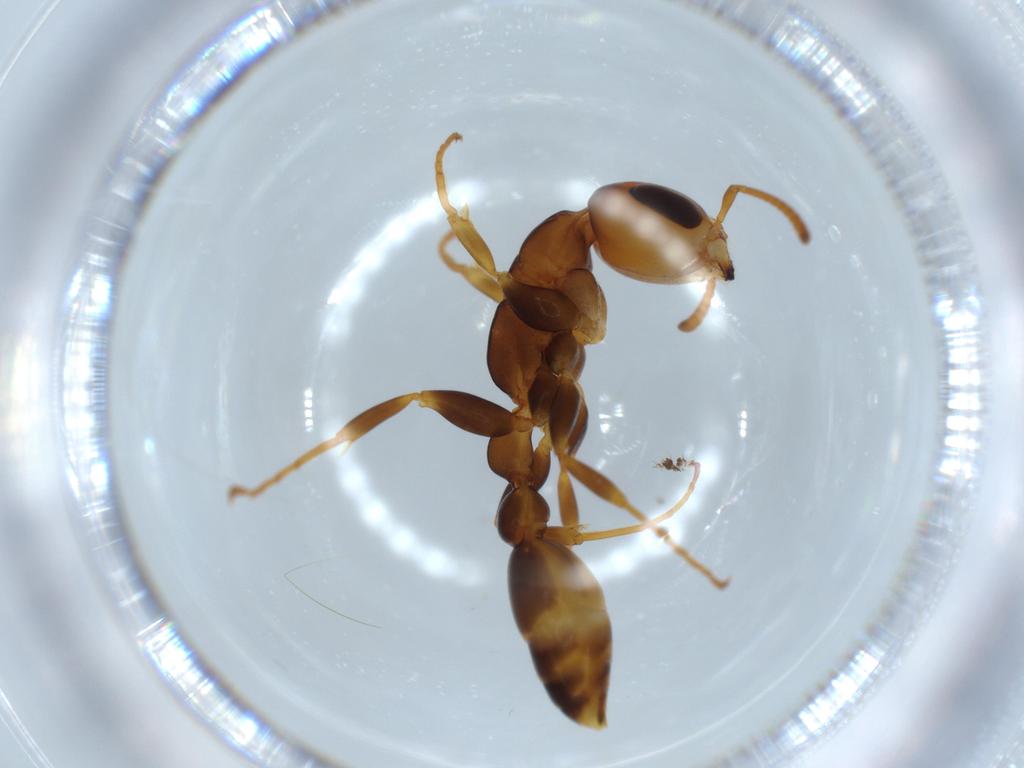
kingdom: Animalia
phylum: Arthropoda
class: Insecta
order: Hymenoptera
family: Formicidae
